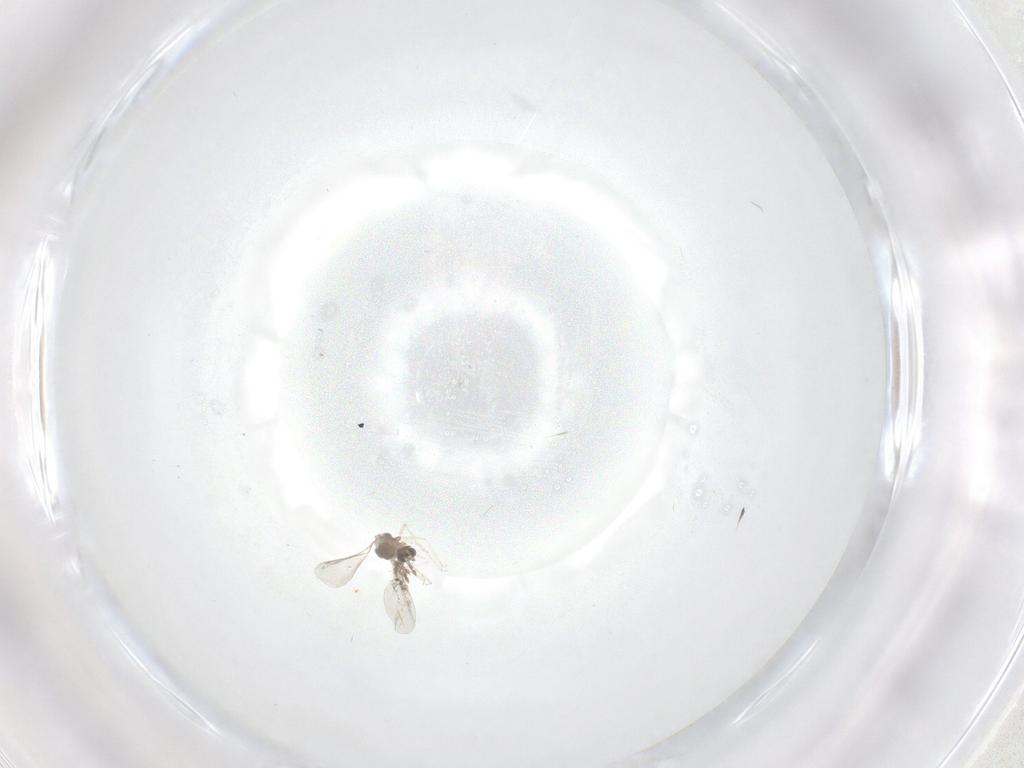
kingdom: Animalia
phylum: Arthropoda
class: Insecta
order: Diptera
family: Cecidomyiidae
